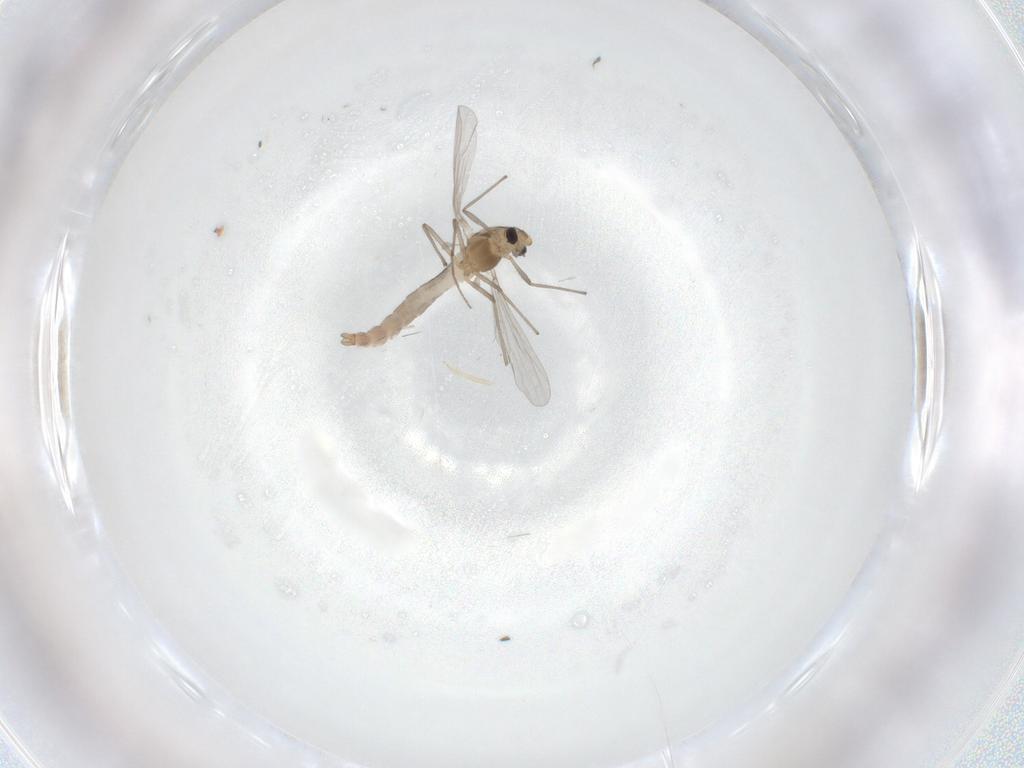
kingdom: Animalia
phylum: Arthropoda
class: Insecta
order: Diptera
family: Chironomidae
